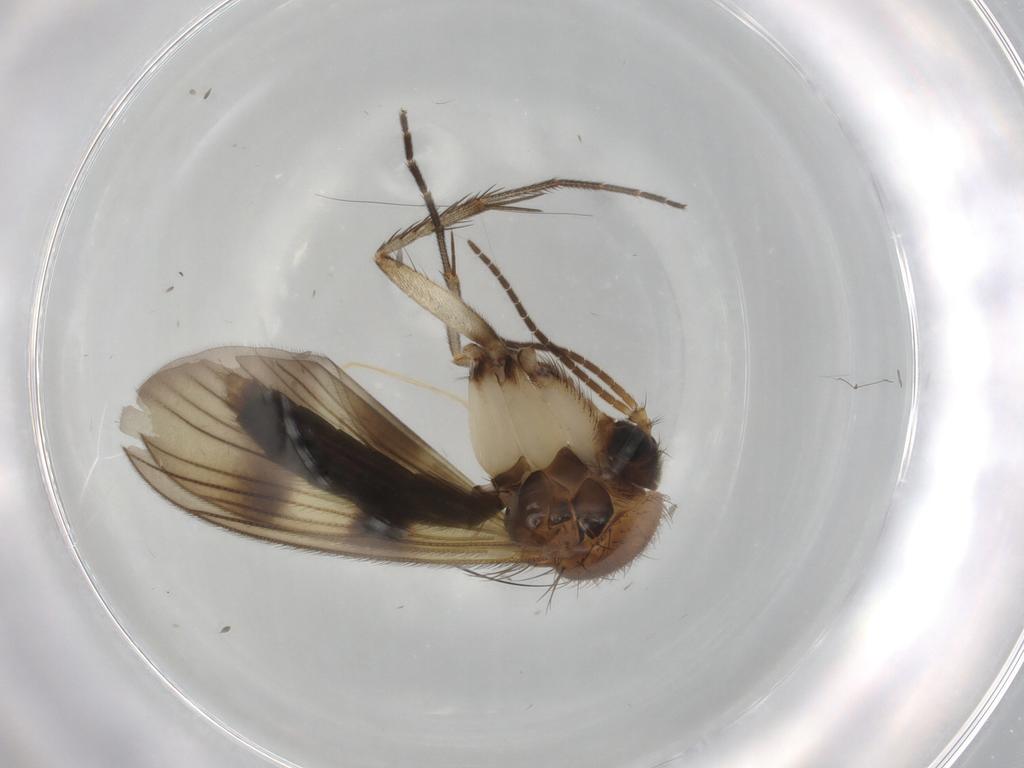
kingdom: Animalia
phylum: Arthropoda
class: Insecta
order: Diptera
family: Mycetophilidae
